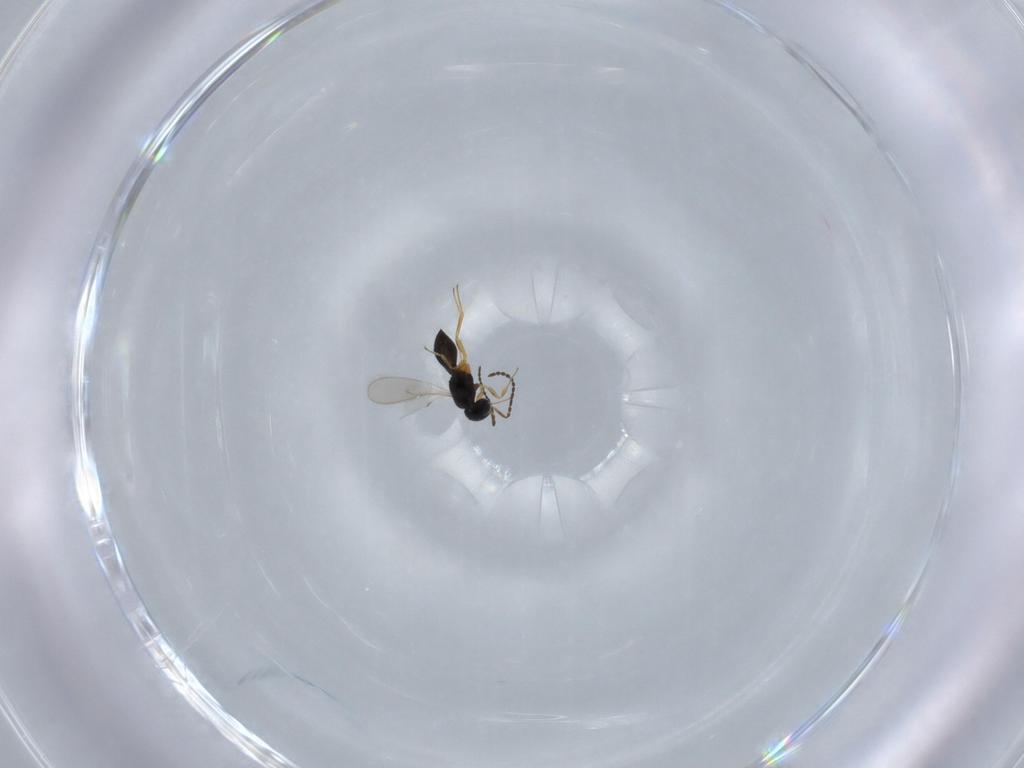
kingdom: Animalia
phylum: Arthropoda
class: Insecta
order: Hymenoptera
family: Scelionidae
